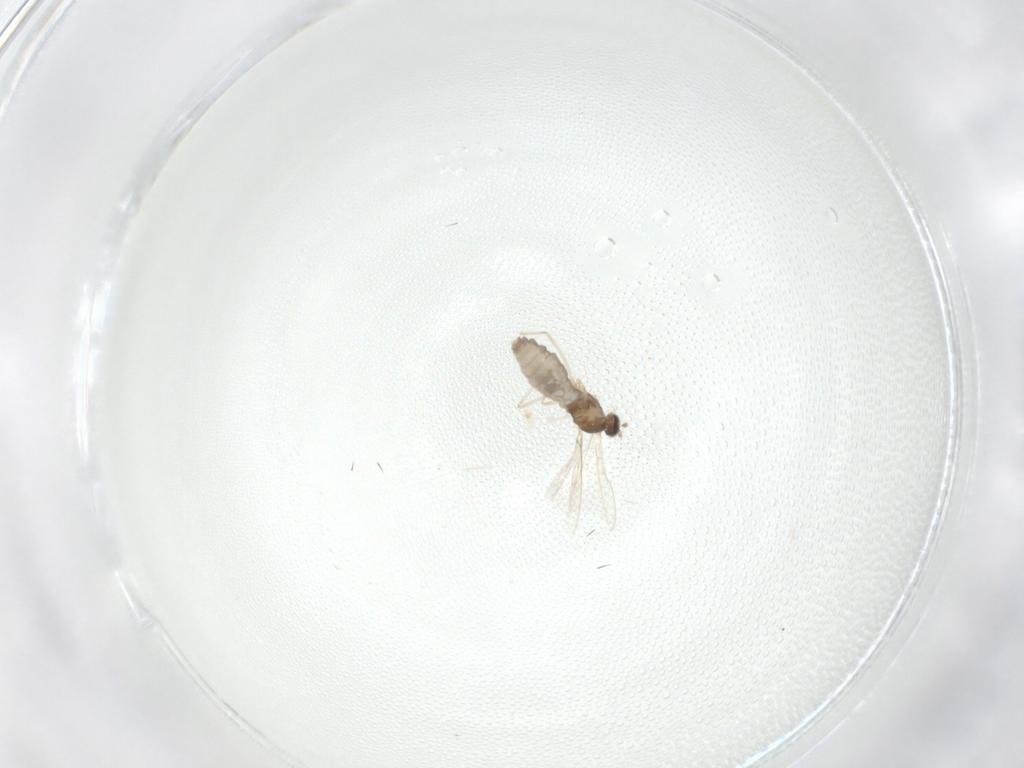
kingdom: Animalia
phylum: Arthropoda
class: Insecta
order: Diptera
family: Cecidomyiidae
